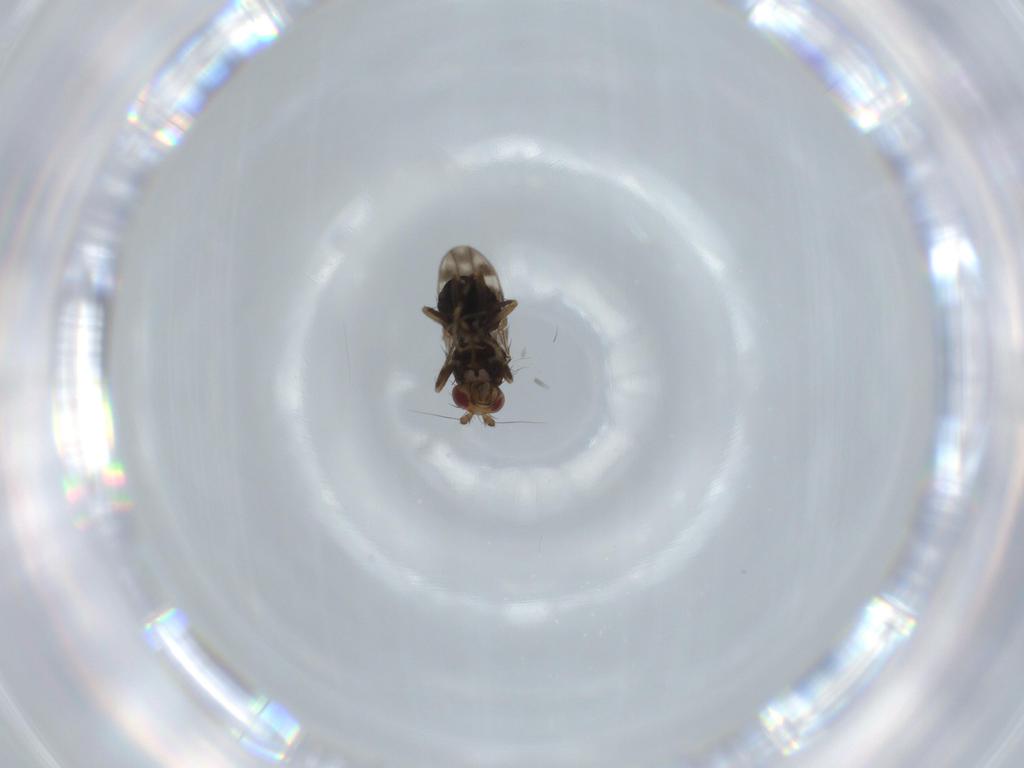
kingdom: Animalia
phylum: Arthropoda
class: Insecta
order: Diptera
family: Sphaeroceridae
